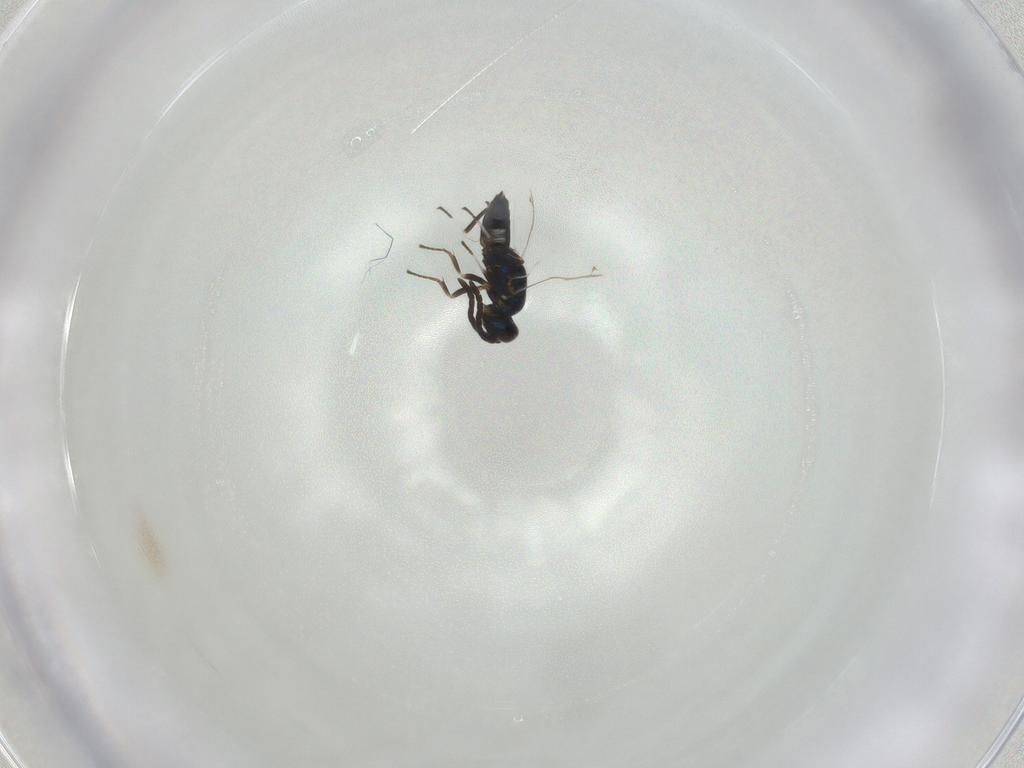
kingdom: Animalia
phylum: Arthropoda
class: Insecta
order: Hymenoptera
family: Eupelmidae
